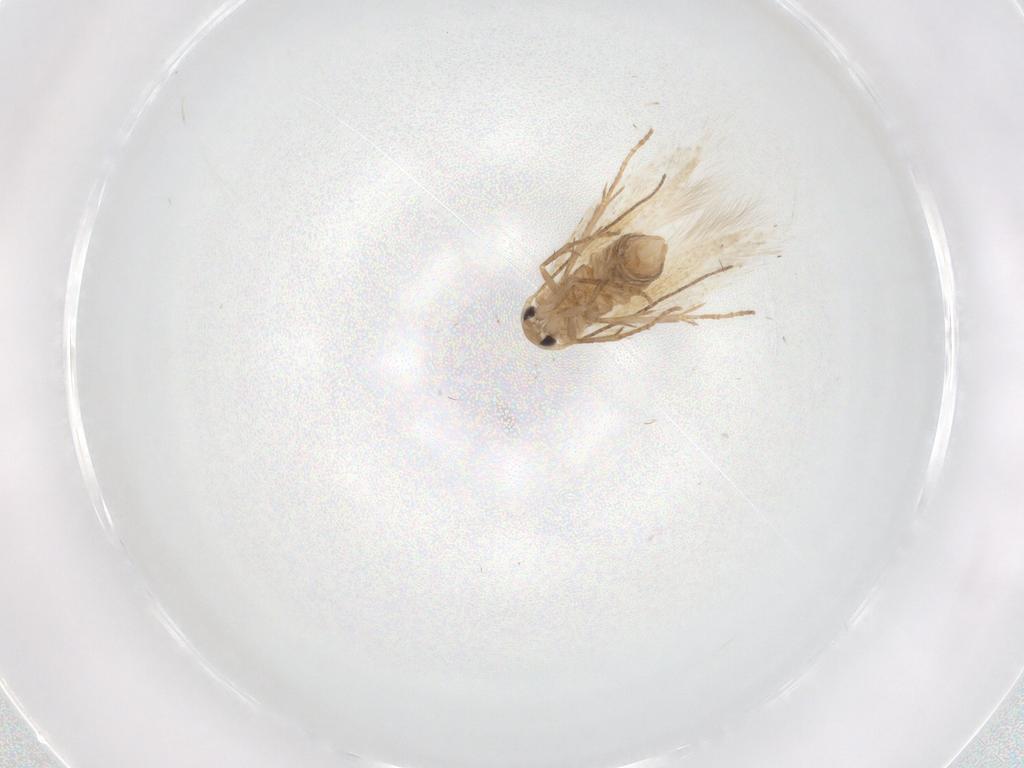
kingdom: Animalia
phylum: Arthropoda
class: Insecta
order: Lepidoptera
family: Bucculatricidae
